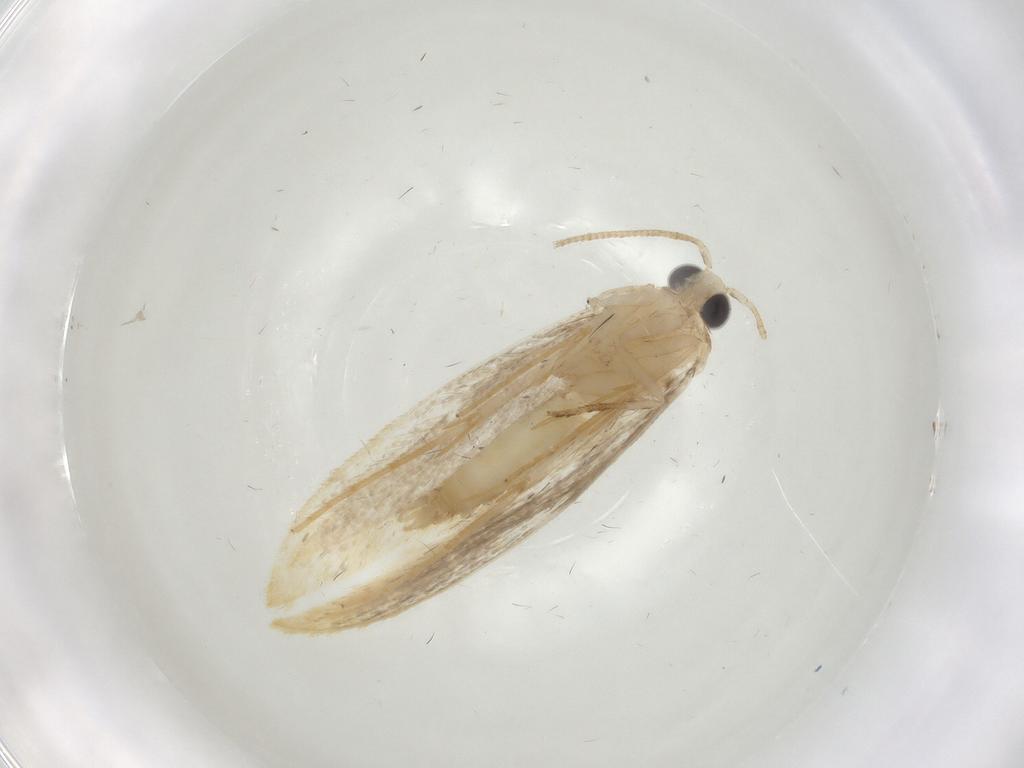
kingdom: Animalia
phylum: Arthropoda
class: Insecta
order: Lepidoptera
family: Tineidae
